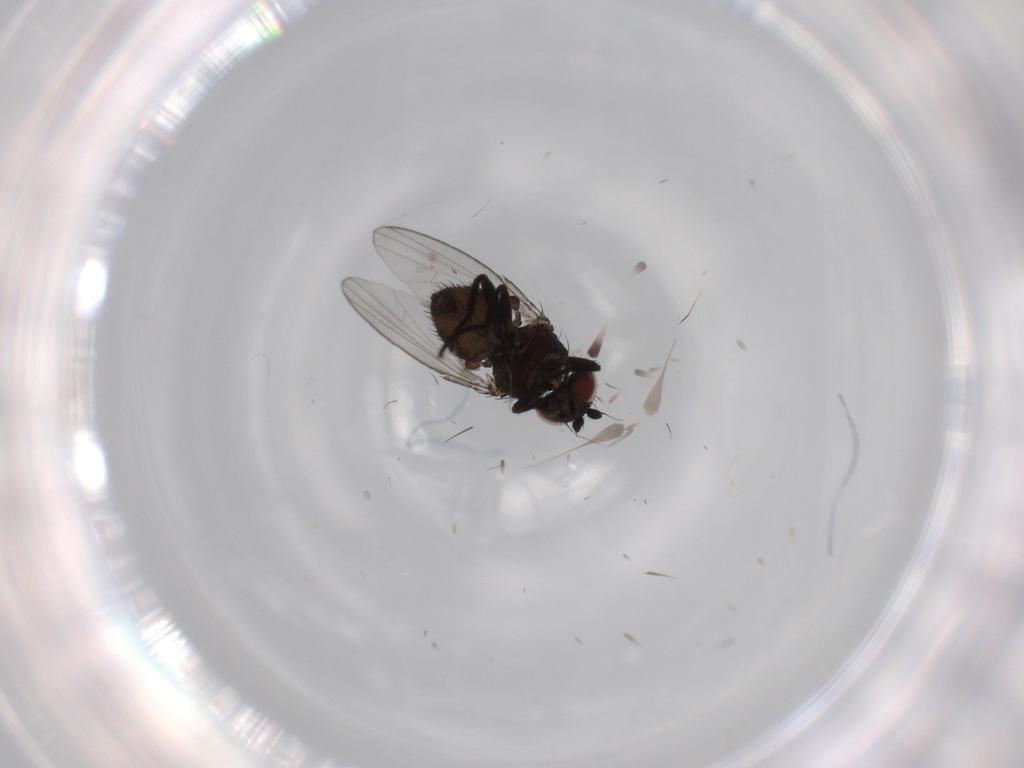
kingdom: Animalia
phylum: Arthropoda
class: Insecta
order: Diptera
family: Milichiidae
